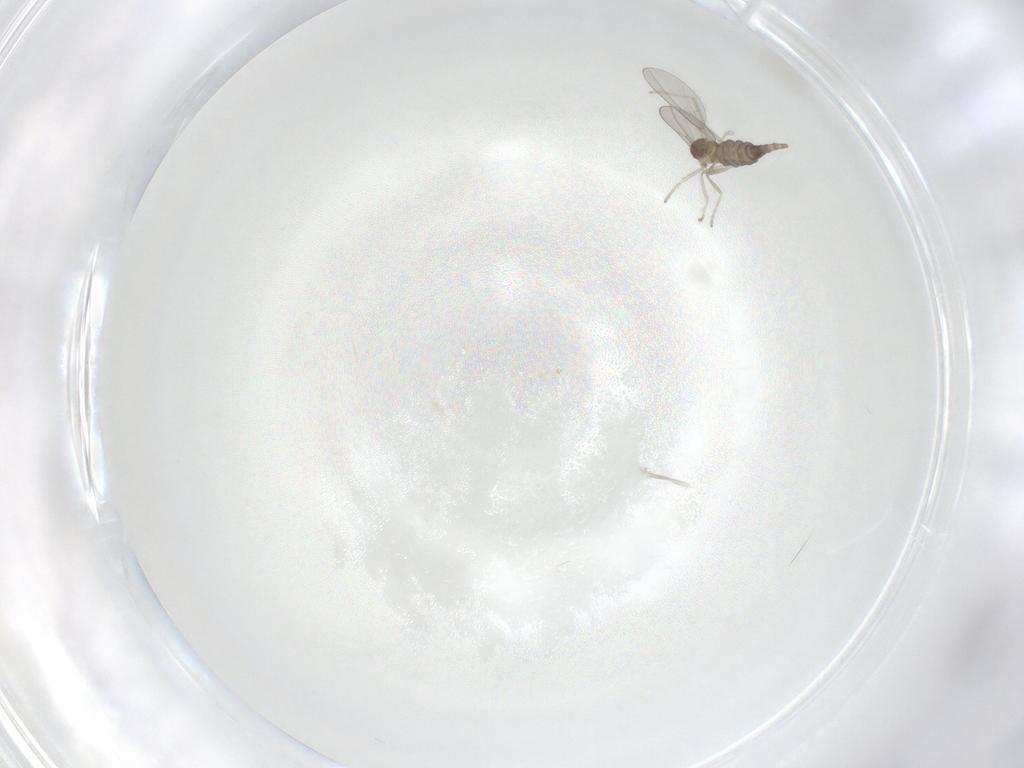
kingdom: Animalia
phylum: Arthropoda
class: Insecta
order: Diptera
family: Cecidomyiidae
